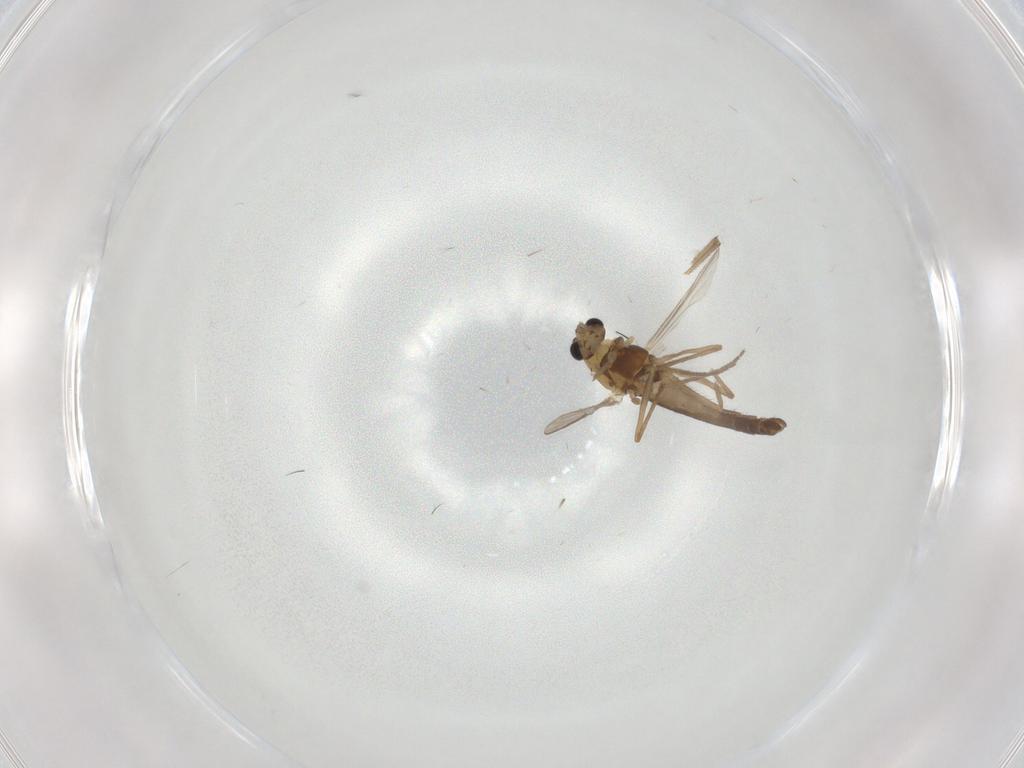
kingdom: Animalia
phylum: Arthropoda
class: Insecta
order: Diptera
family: Chironomidae
